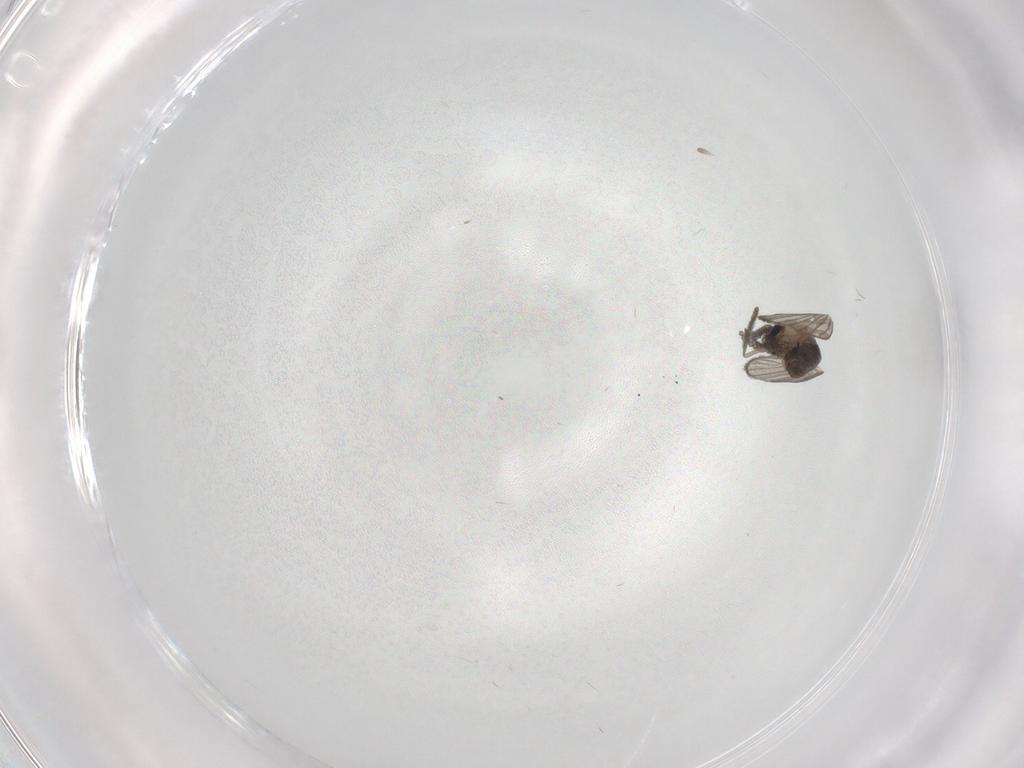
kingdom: Animalia
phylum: Arthropoda
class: Insecta
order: Diptera
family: Psychodidae
